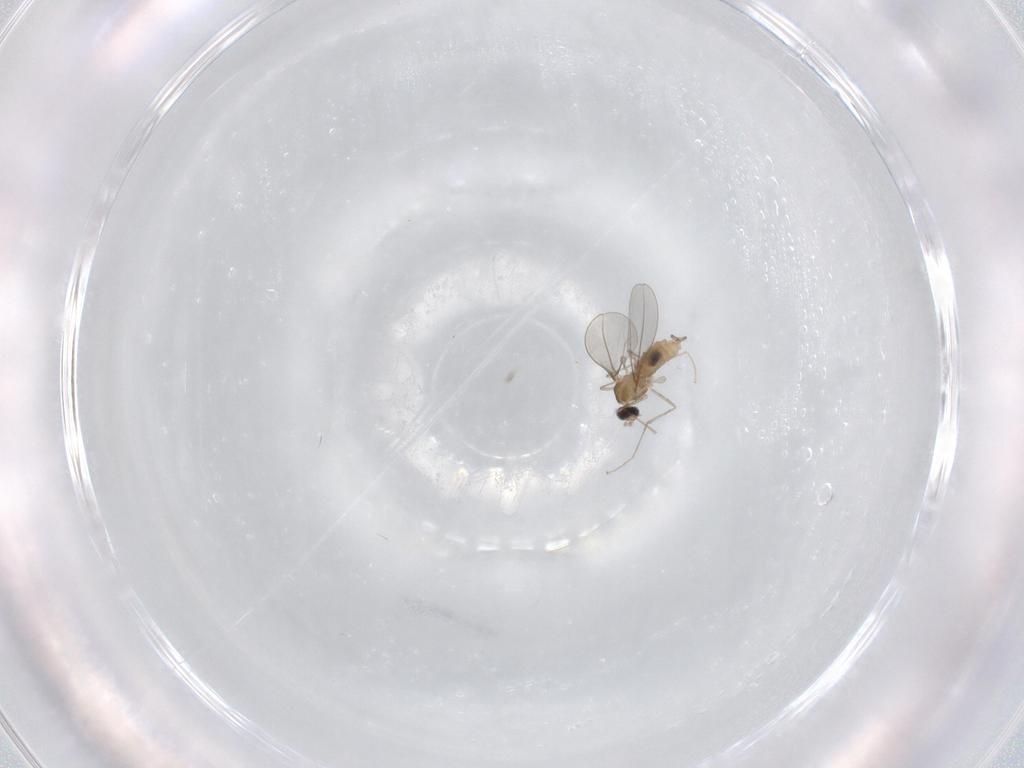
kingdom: Animalia
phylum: Arthropoda
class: Insecta
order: Diptera
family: Cecidomyiidae
